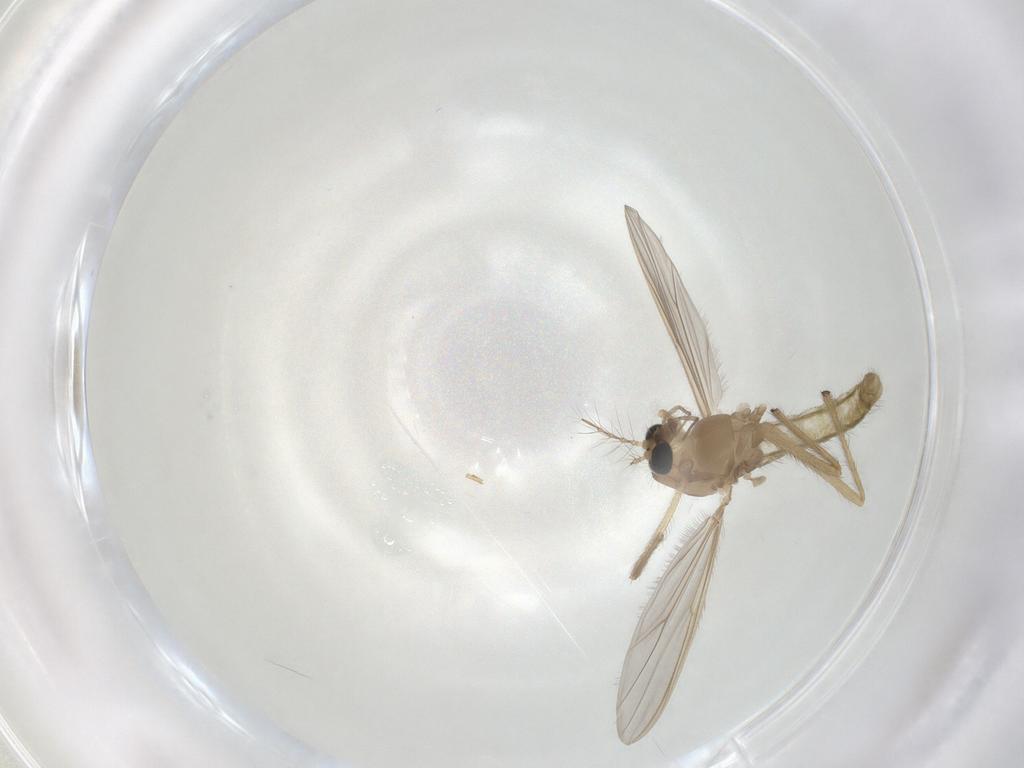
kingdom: Animalia
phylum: Arthropoda
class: Insecta
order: Diptera
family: Chironomidae
